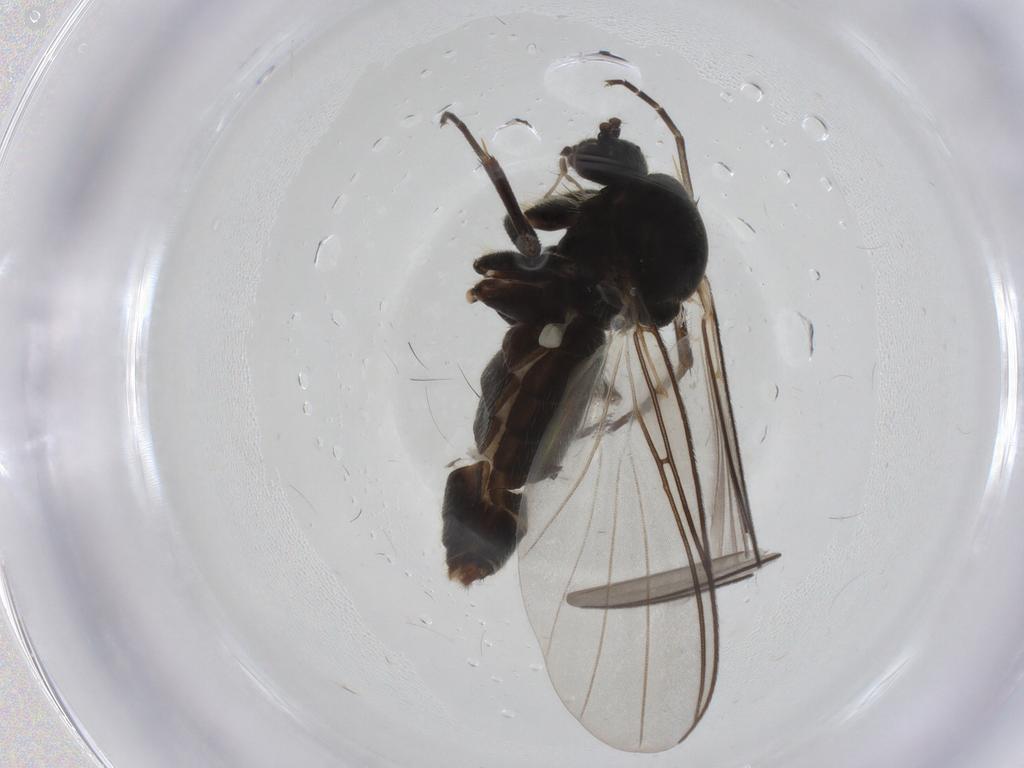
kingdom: Animalia
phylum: Arthropoda
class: Insecta
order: Diptera
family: Mycetophilidae
